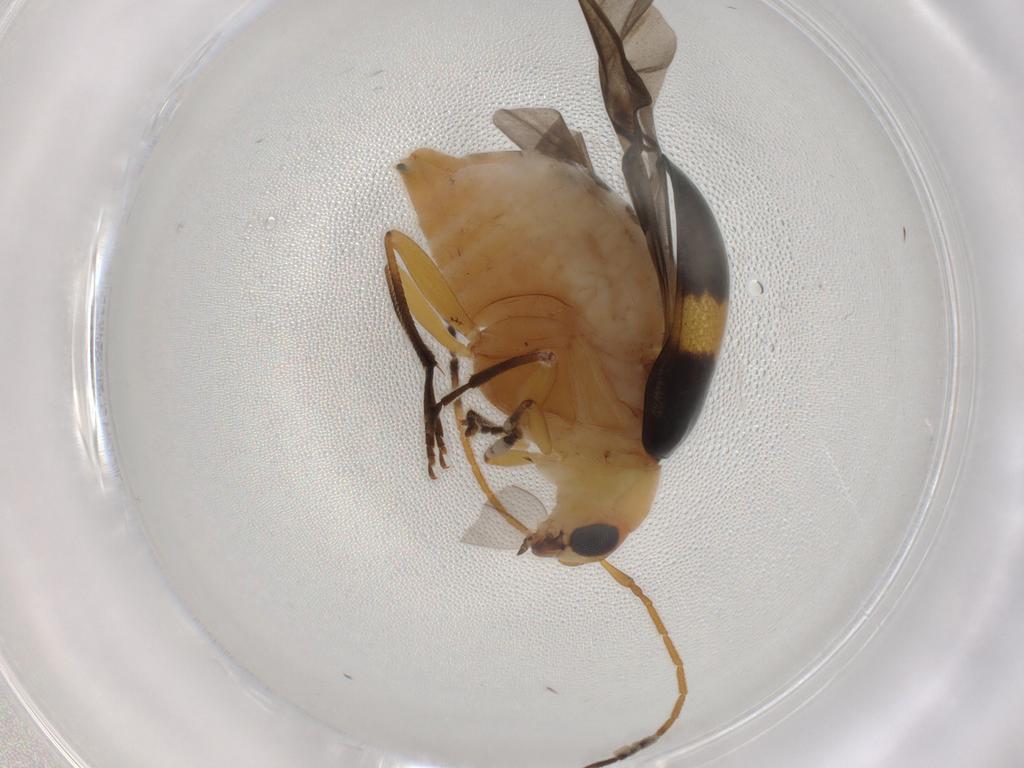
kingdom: Animalia
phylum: Arthropoda
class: Insecta
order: Coleoptera
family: Chrysomelidae
